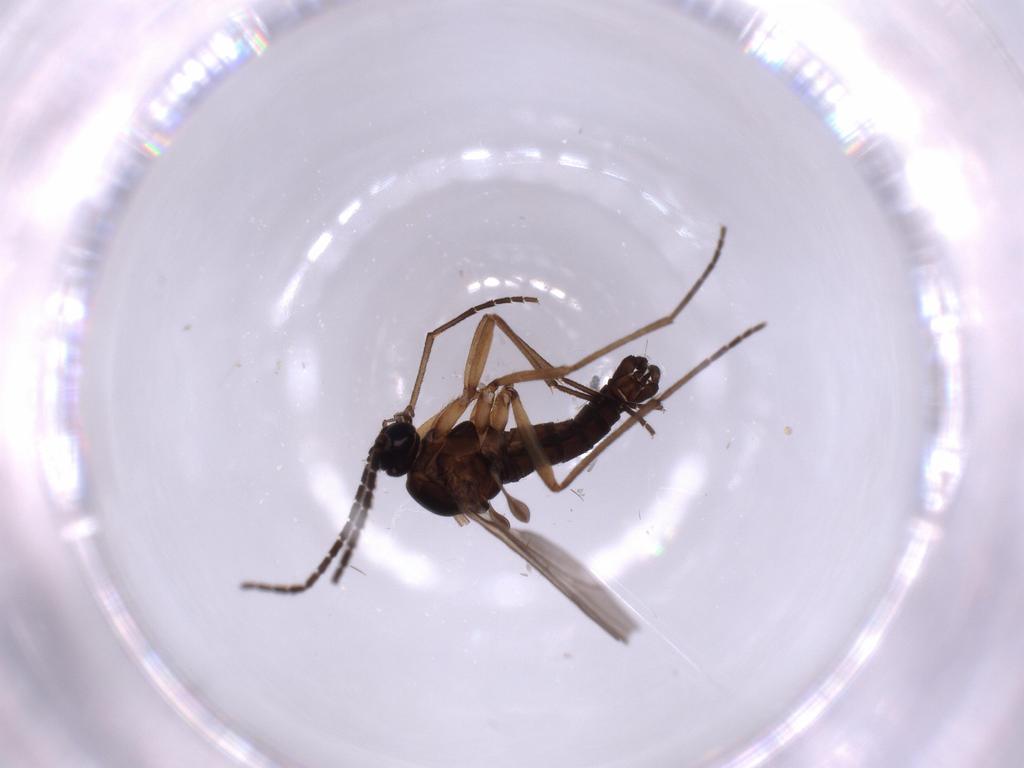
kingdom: Animalia
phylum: Arthropoda
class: Insecta
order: Diptera
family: Sciaridae
